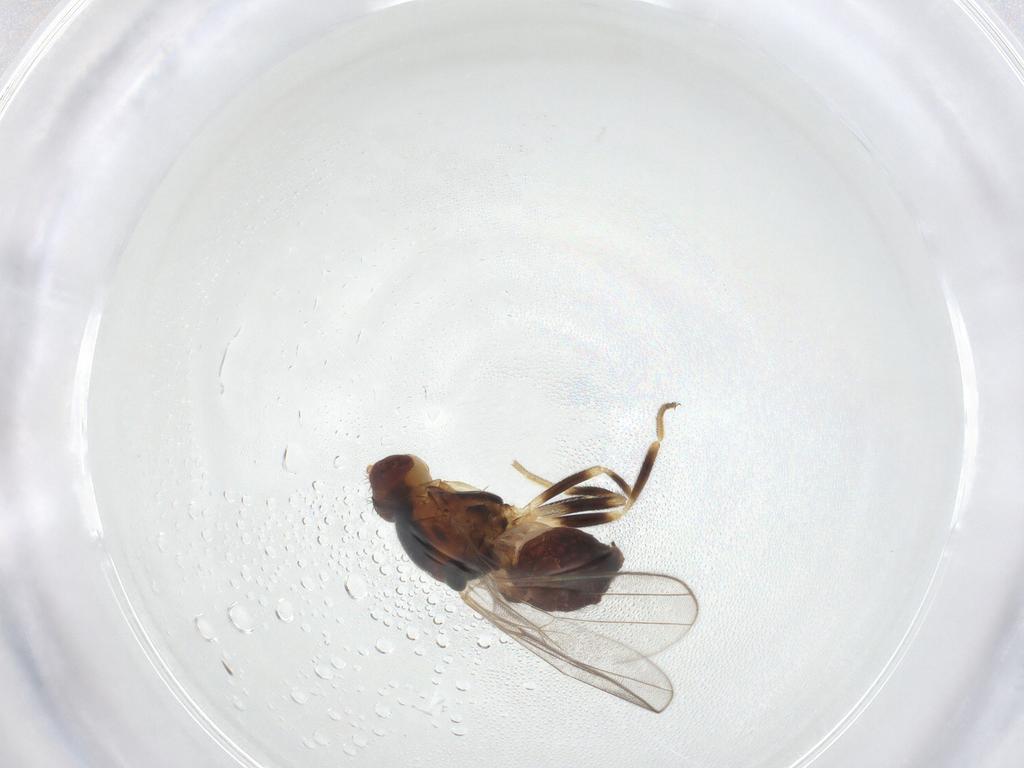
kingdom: Animalia
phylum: Arthropoda
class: Insecta
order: Diptera
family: Chloropidae
